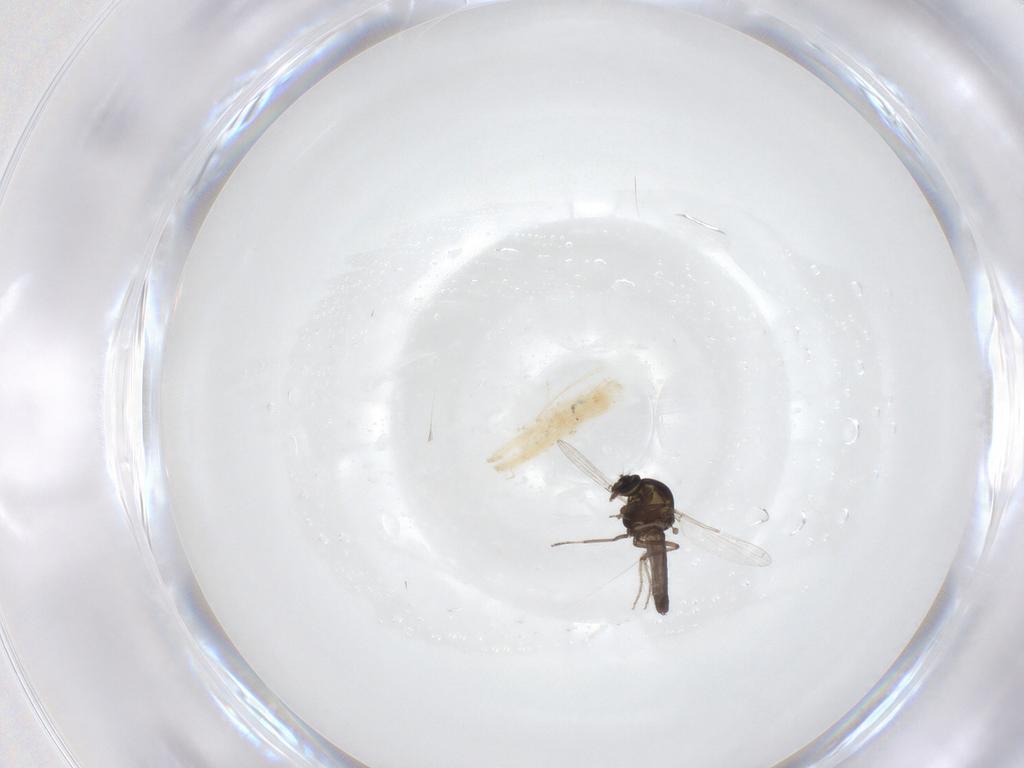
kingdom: Animalia
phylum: Arthropoda
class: Insecta
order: Diptera
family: Ceratopogonidae
